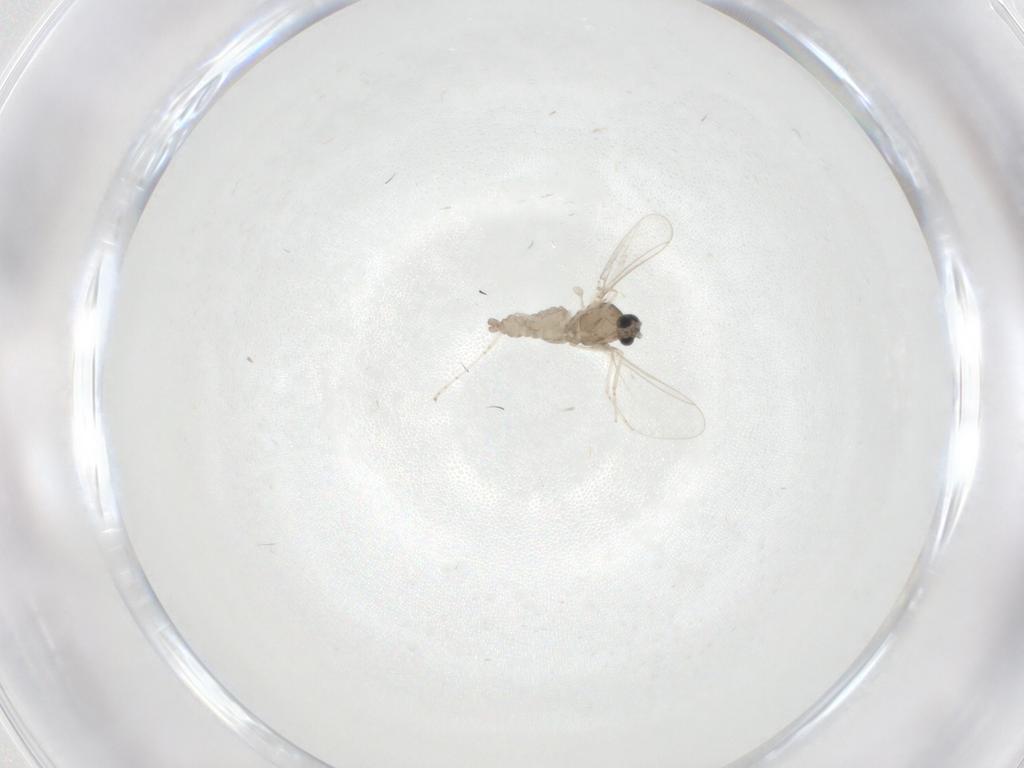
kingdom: Animalia
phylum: Arthropoda
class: Insecta
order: Diptera
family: Cecidomyiidae
